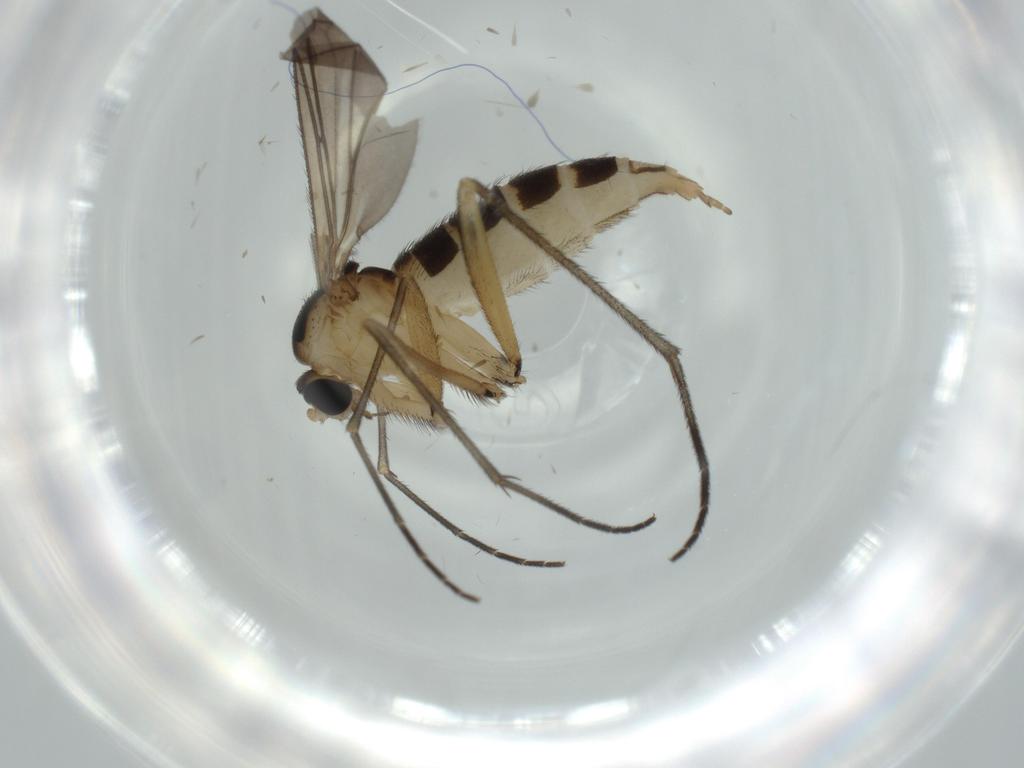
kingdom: Animalia
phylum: Arthropoda
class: Insecta
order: Diptera
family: Sciaridae
